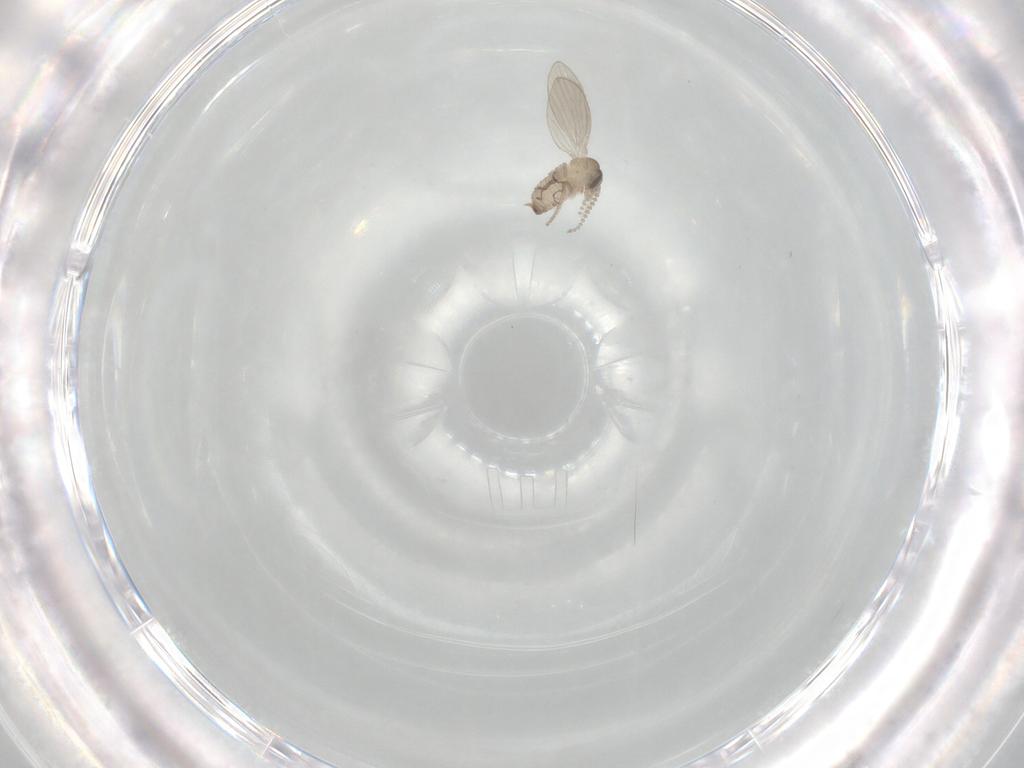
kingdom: Animalia
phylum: Arthropoda
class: Insecta
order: Diptera
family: Psychodidae
